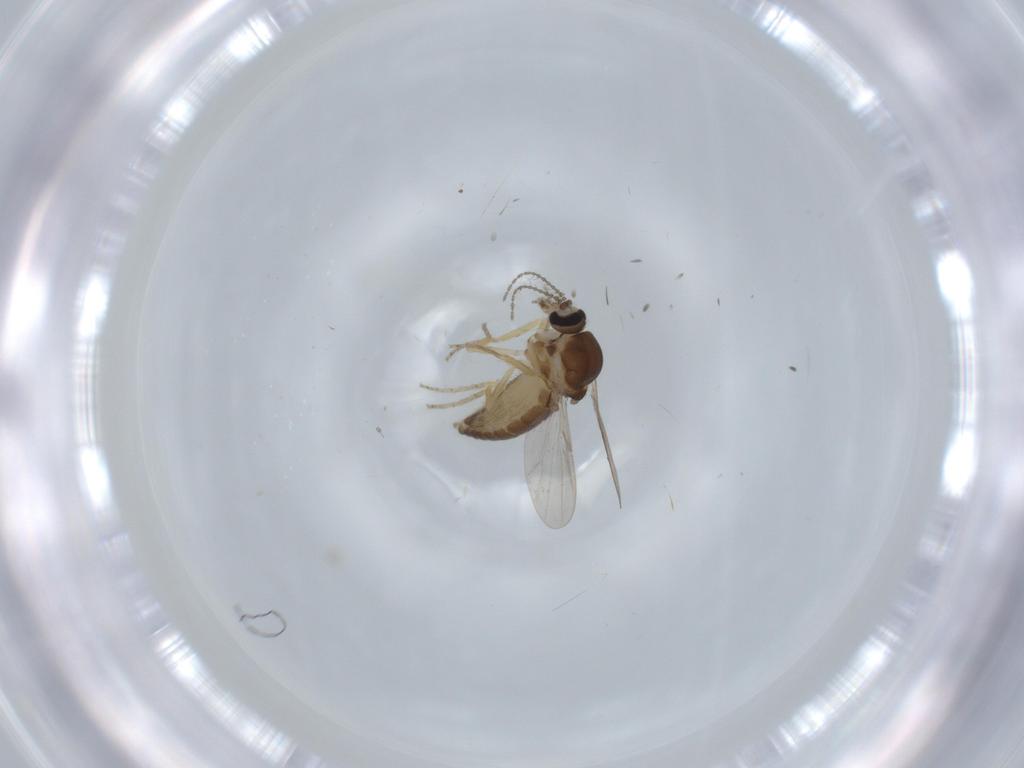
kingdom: Animalia
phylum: Arthropoda
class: Insecta
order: Diptera
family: Ceratopogonidae
